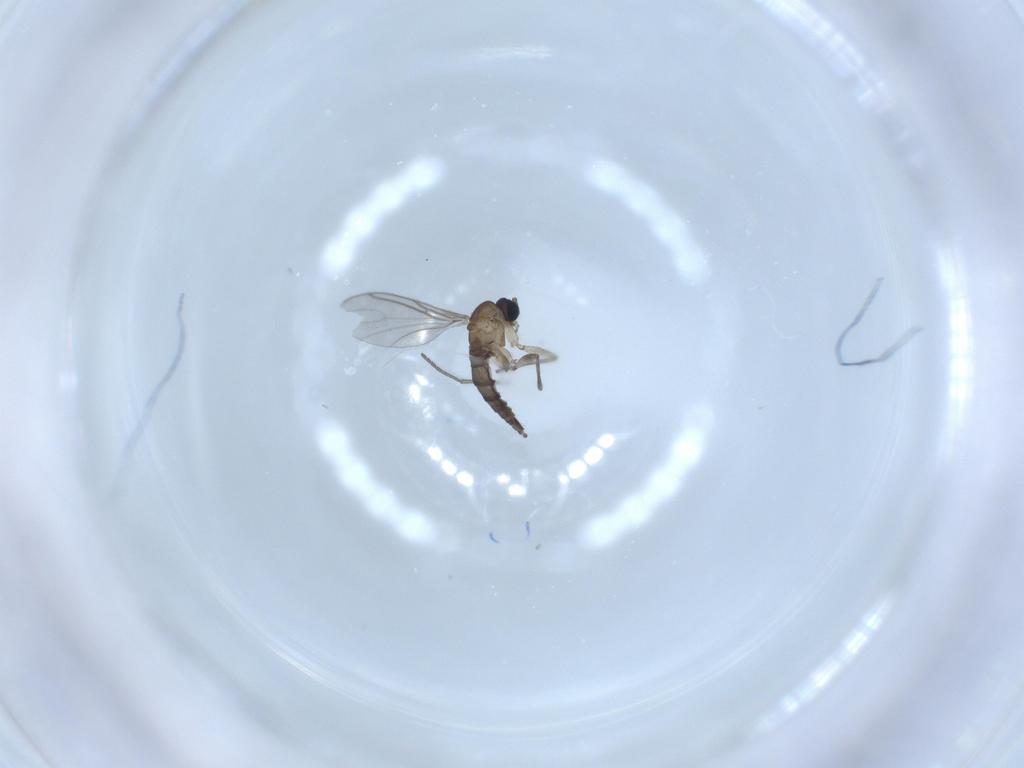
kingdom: Animalia
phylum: Arthropoda
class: Insecta
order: Diptera
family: Sciaridae
